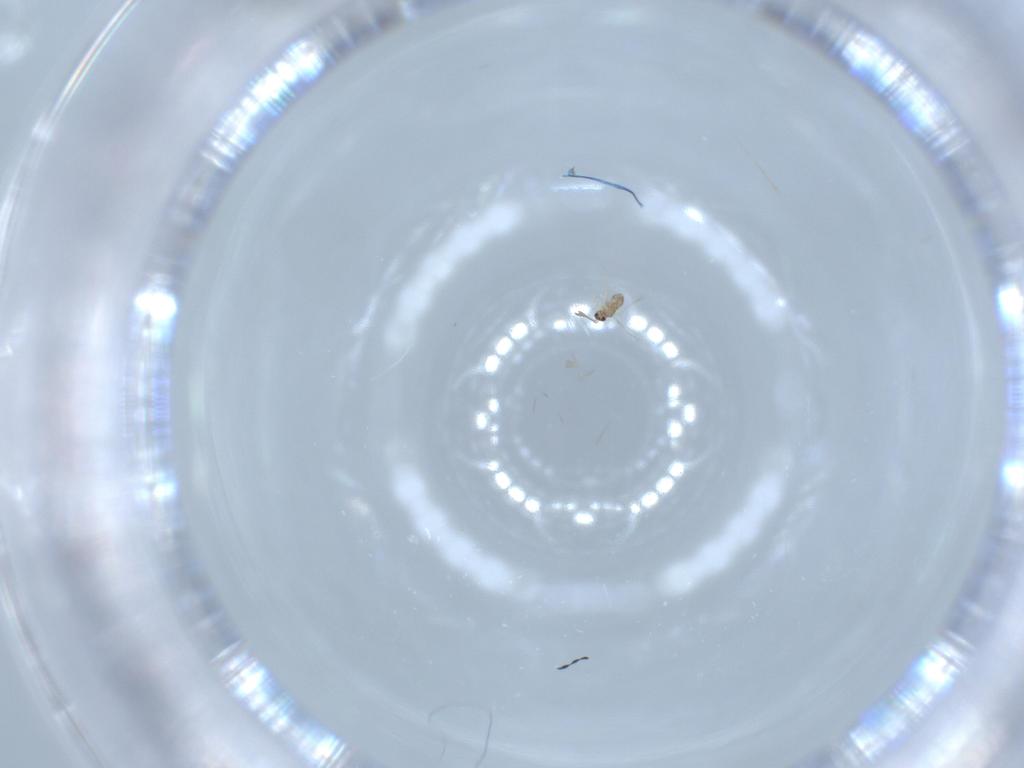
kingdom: Animalia
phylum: Arthropoda
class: Insecta
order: Hymenoptera
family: Mymaridae
